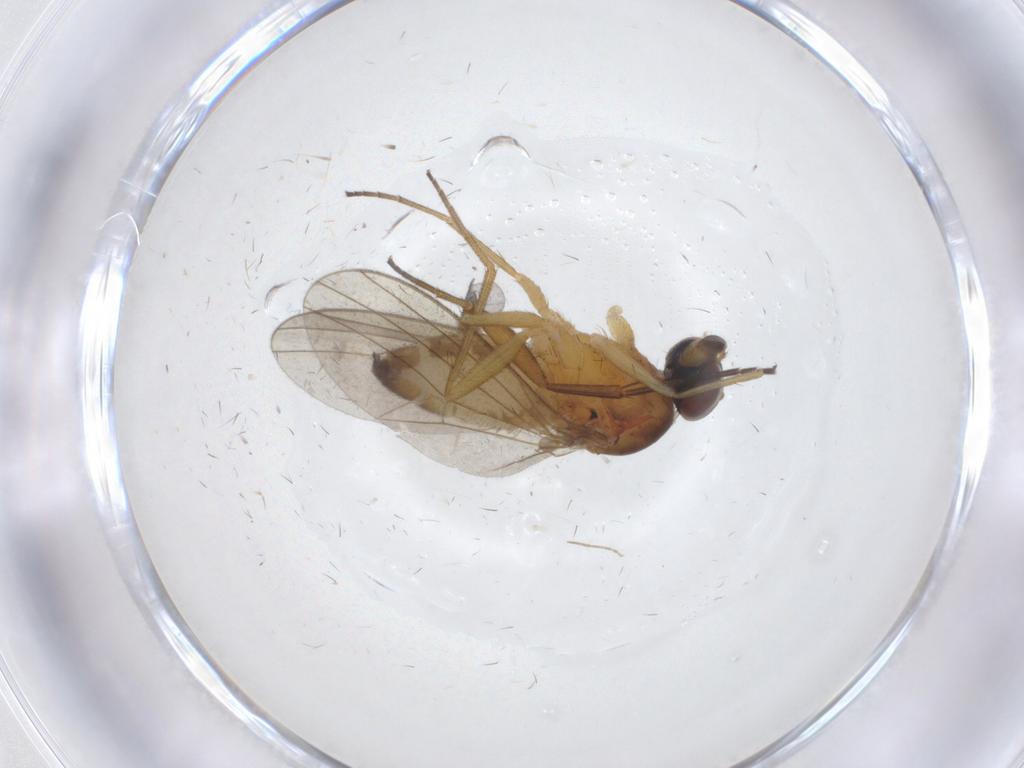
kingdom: Animalia
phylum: Arthropoda
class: Insecta
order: Diptera
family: Dolichopodidae
